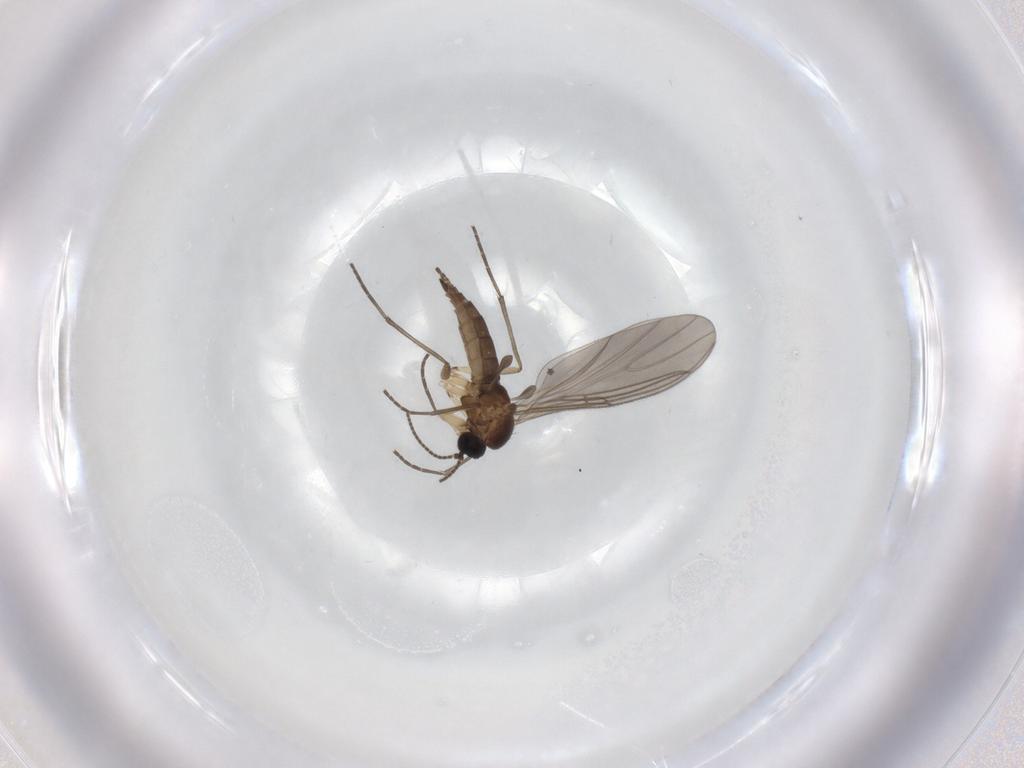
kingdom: Animalia
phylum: Arthropoda
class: Insecta
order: Diptera
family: Sciaridae
